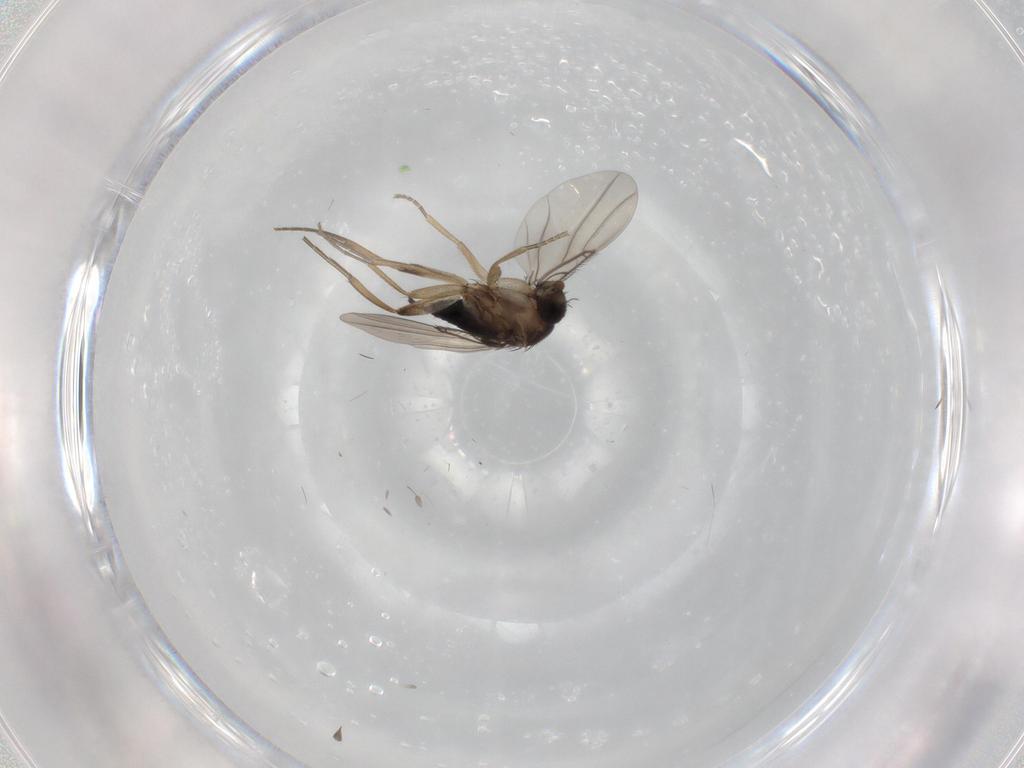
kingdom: Animalia
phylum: Arthropoda
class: Insecta
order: Diptera
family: Phoridae
